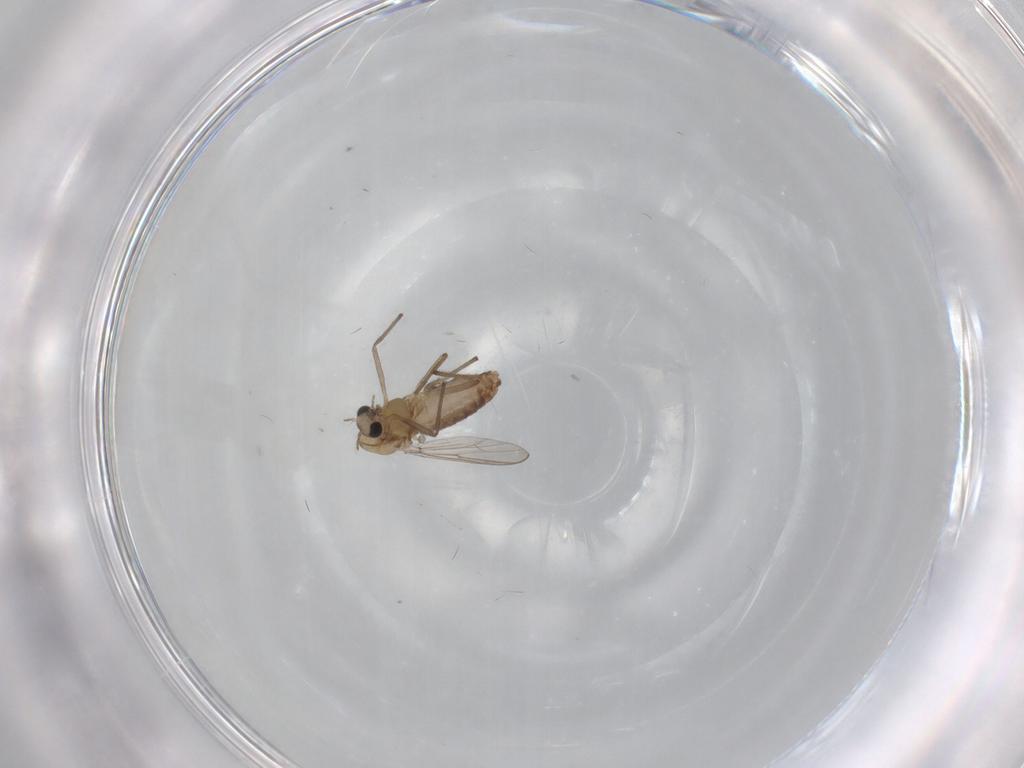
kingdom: Animalia
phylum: Arthropoda
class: Insecta
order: Diptera
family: Chironomidae
